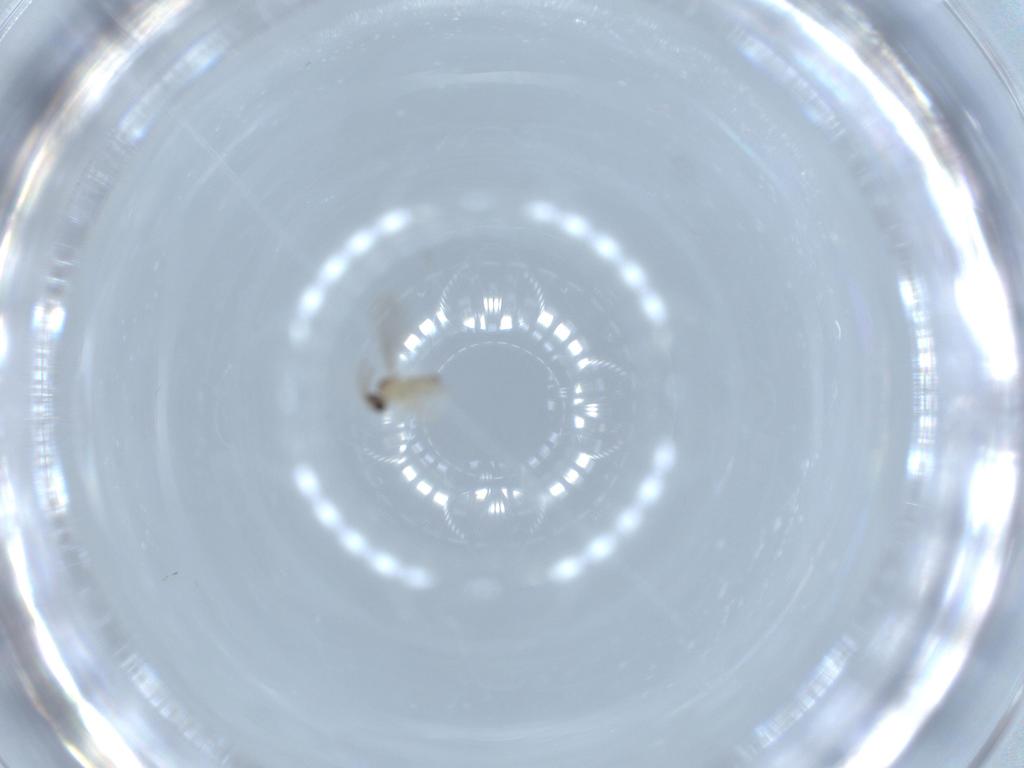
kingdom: Animalia
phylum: Arthropoda
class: Insecta
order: Diptera
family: Cecidomyiidae
